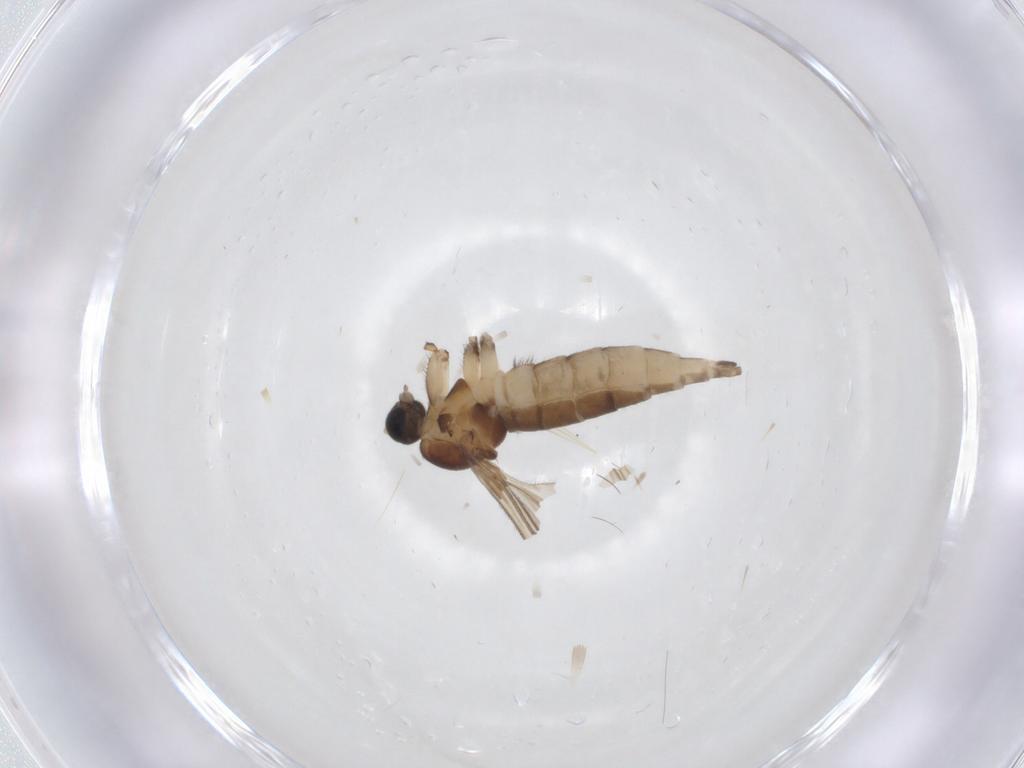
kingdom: Animalia
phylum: Arthropoda
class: Insecta
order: Diptera
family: Sciaridae
